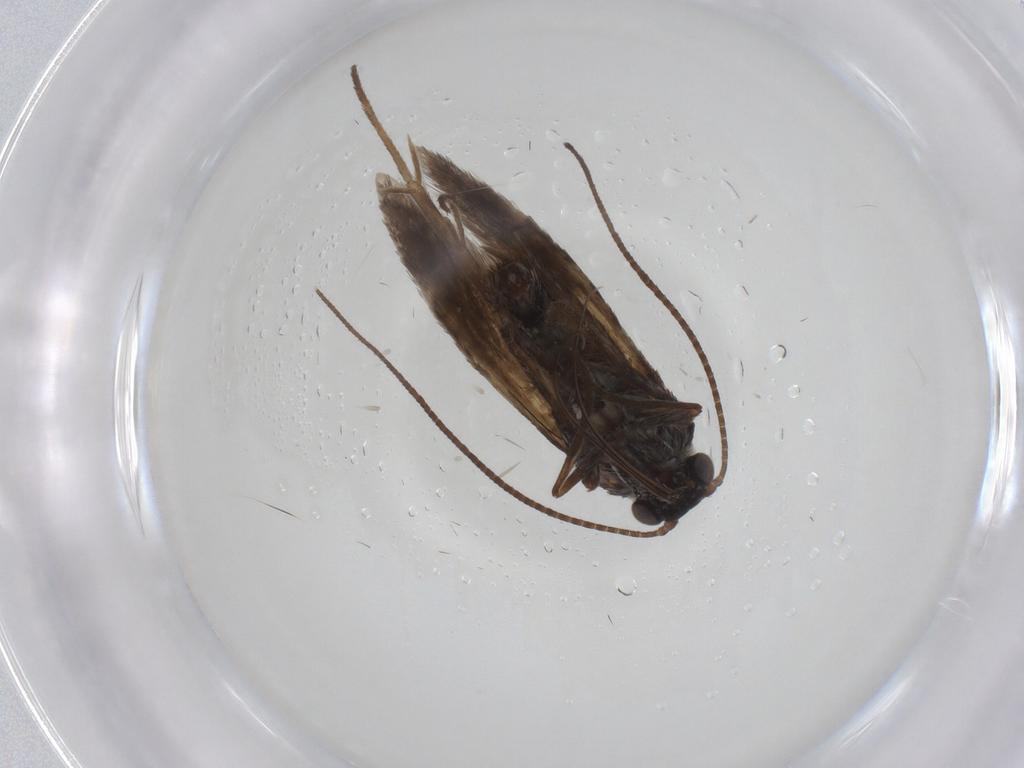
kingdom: Animalia
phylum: Arthropoda
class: Insecta
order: Lepidoptera
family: Adelidae
